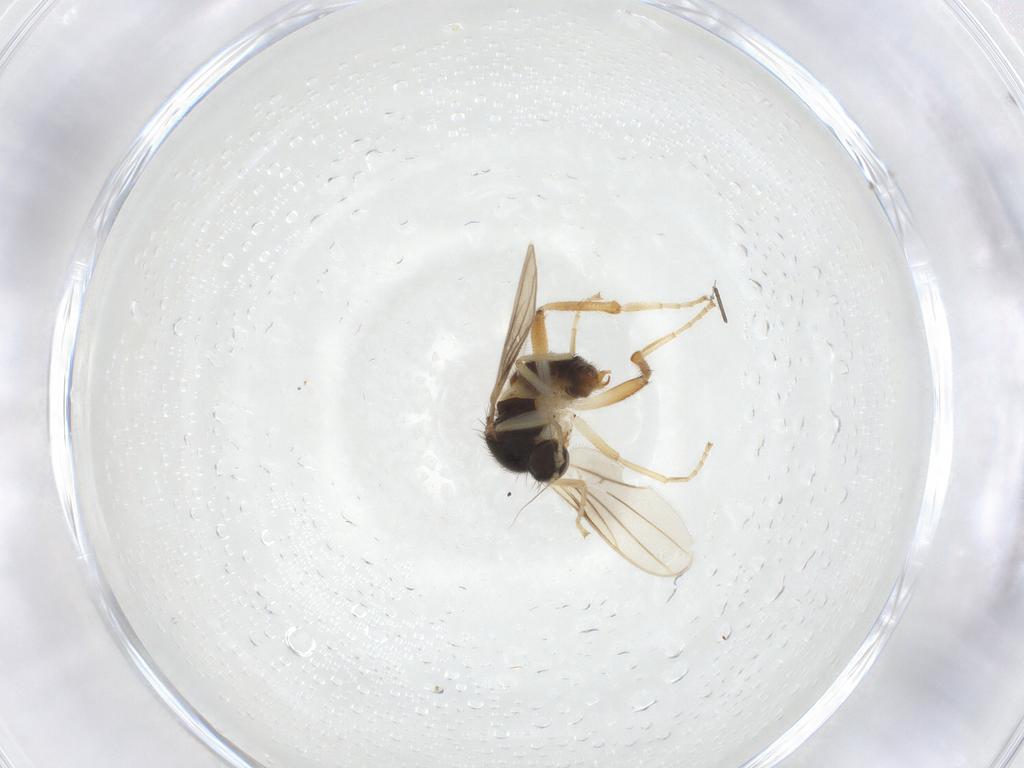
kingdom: Animalia
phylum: Arthropoda
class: Insecta
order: Diptera
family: Hybotidae
